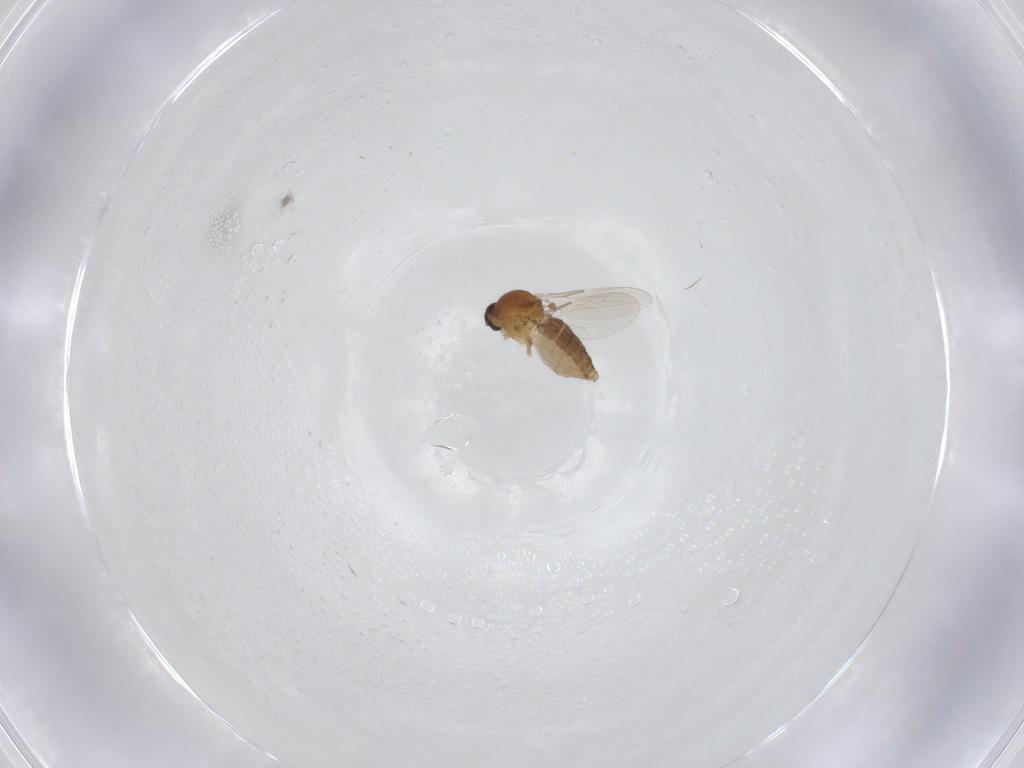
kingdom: Animalia
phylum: Arthropoda
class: Insecta
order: Diptera
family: Ceratopogonidae
